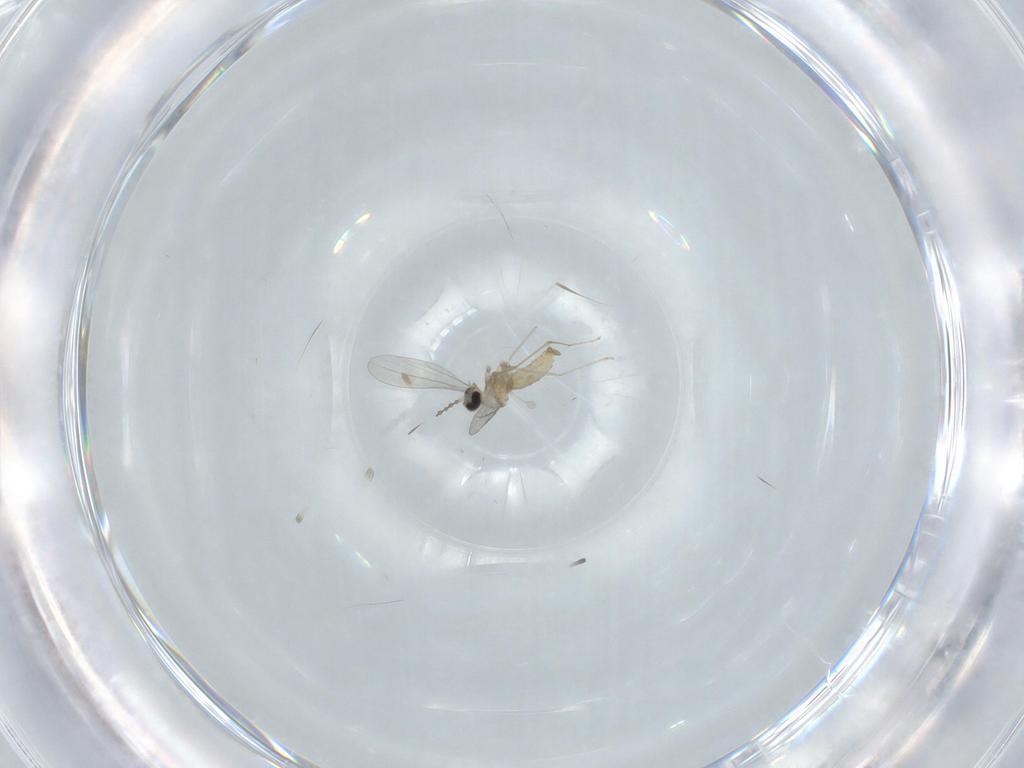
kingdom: Animalia
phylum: Arthropoda
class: Insecta
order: Diptera
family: Cecidomyiidae
